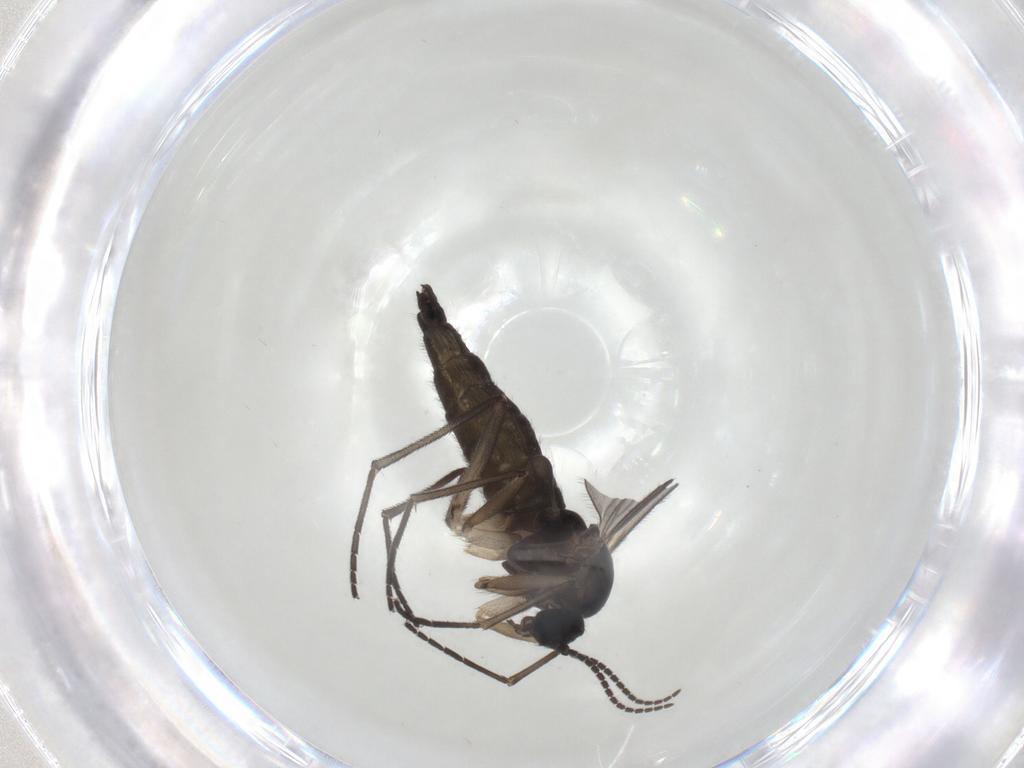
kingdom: Animalia
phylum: Arthropoda
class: Insecta
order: Diptera
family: Sciaridae
